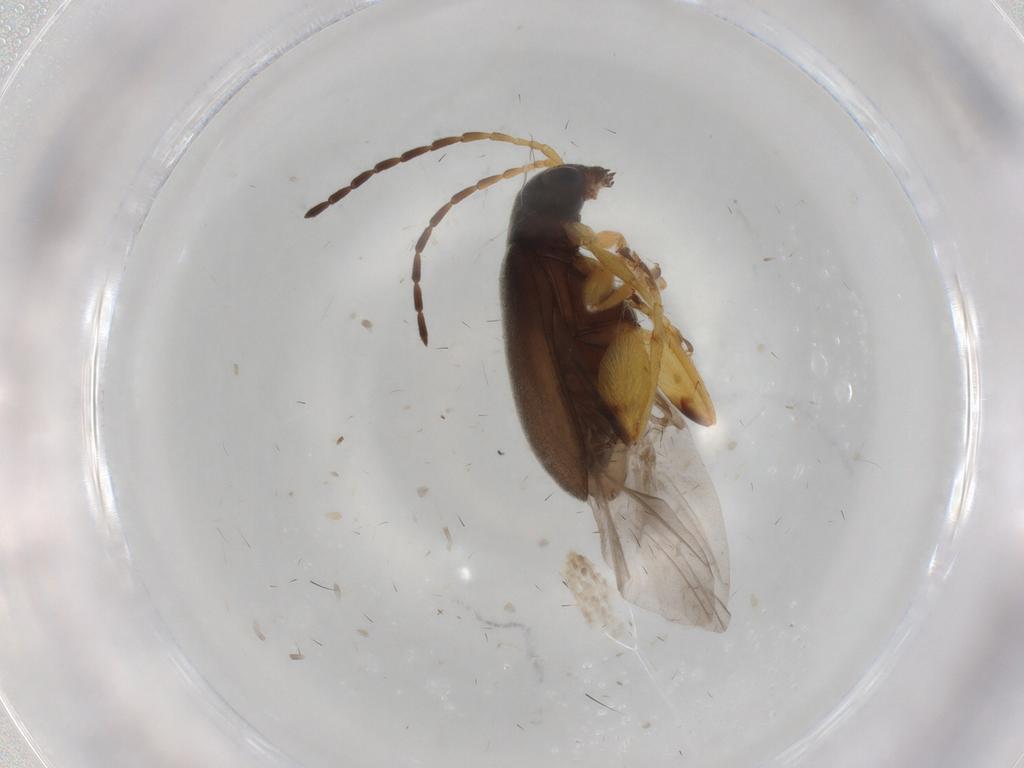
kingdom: Animalia
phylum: Arthropoda
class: Insecta
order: Coleoptera
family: Chrysomelidae
